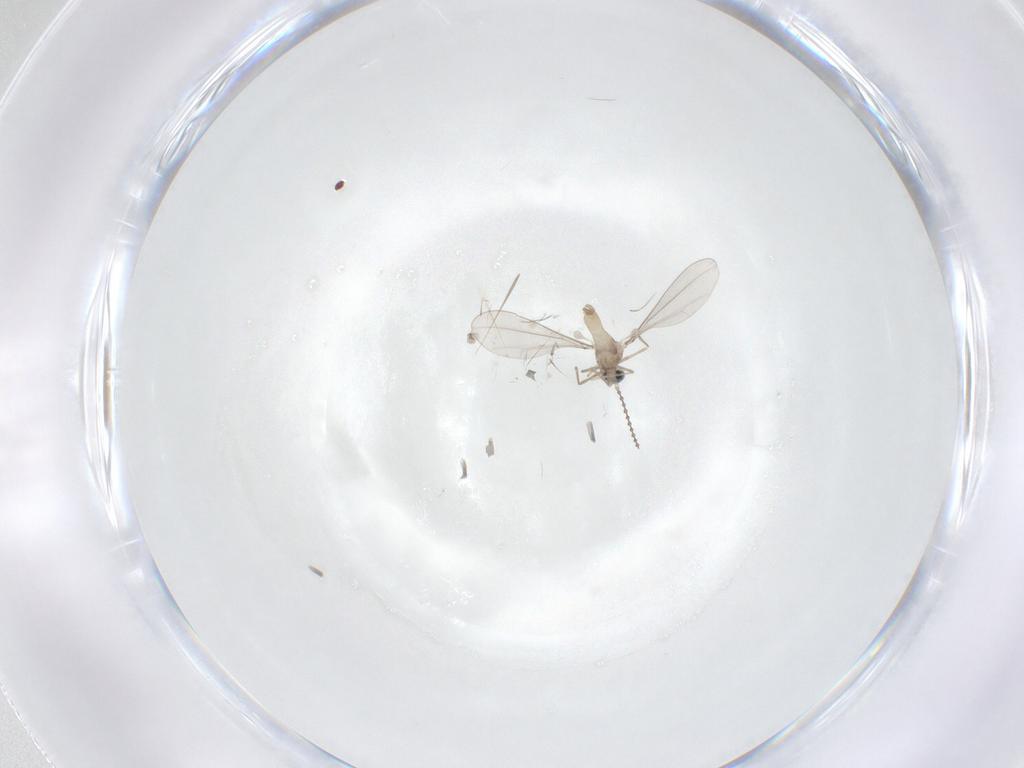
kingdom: Animalia
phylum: Arthropoda
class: Insecta
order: Diptera
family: Cecidomyiidae
